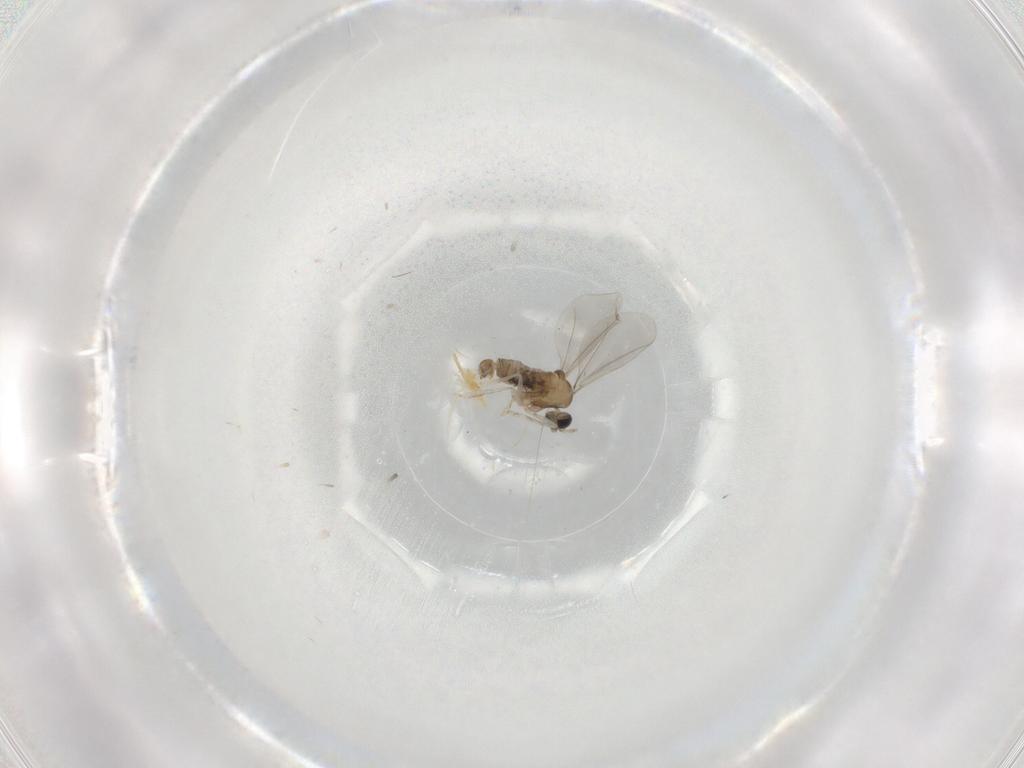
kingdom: Animalia
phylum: Arthropoda
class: Insecta
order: Diptera
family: Cecidomyiidae
